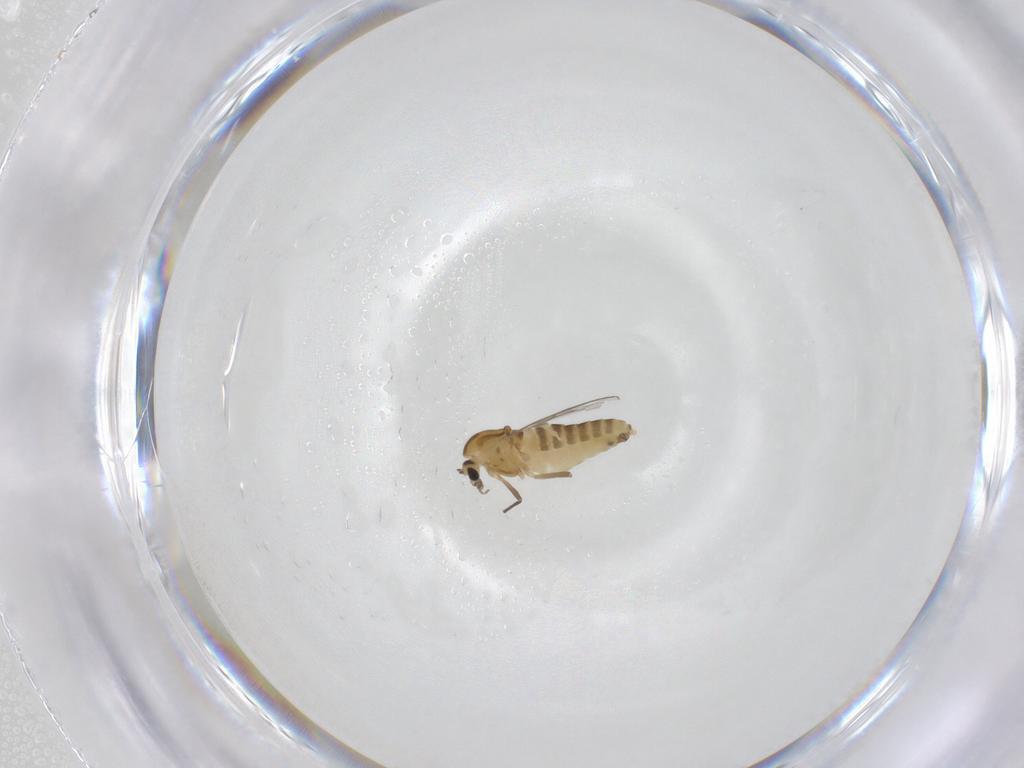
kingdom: Animalia
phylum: Arthropoda
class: Insecta
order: Diptera
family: Chironomidae
